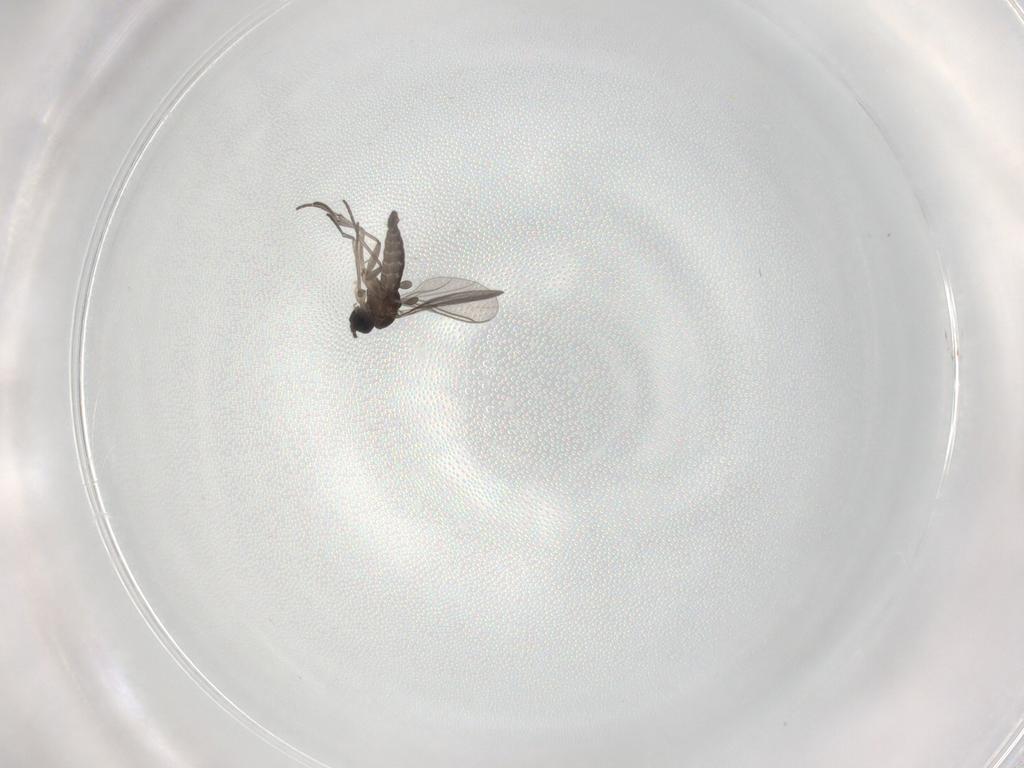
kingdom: Animalia
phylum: Arthropoda
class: Insecta
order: Diptera
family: Sciaridae
